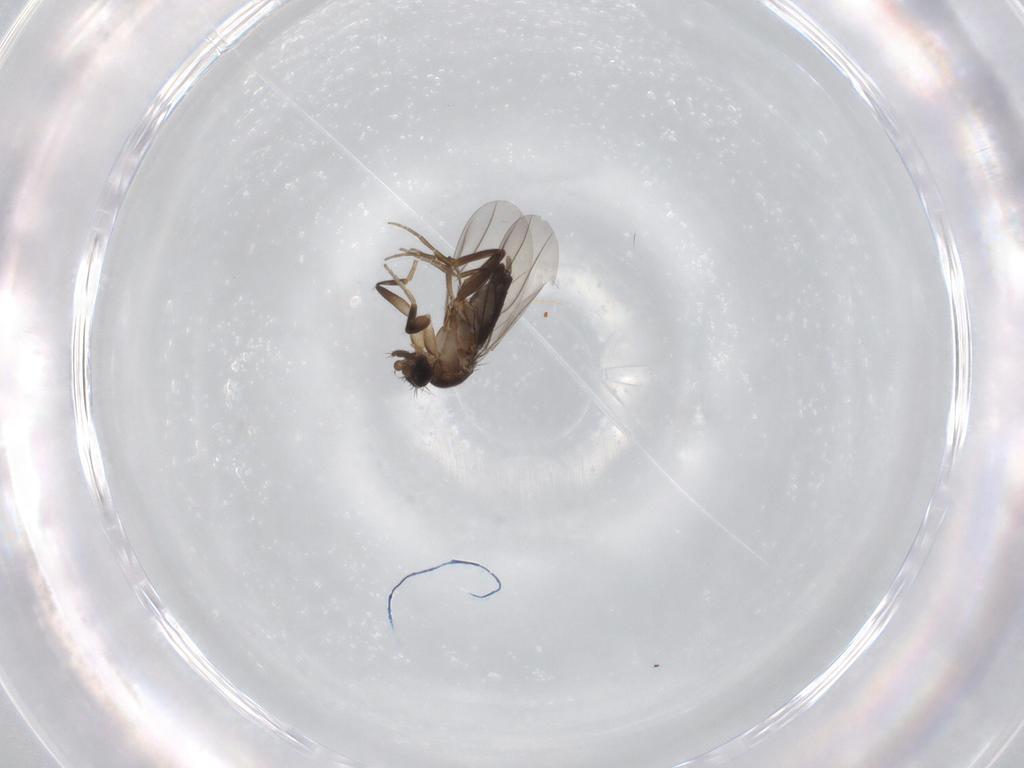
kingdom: Animalia
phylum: Arthropoda
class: Insecta
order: Diptera
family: Phoridae
